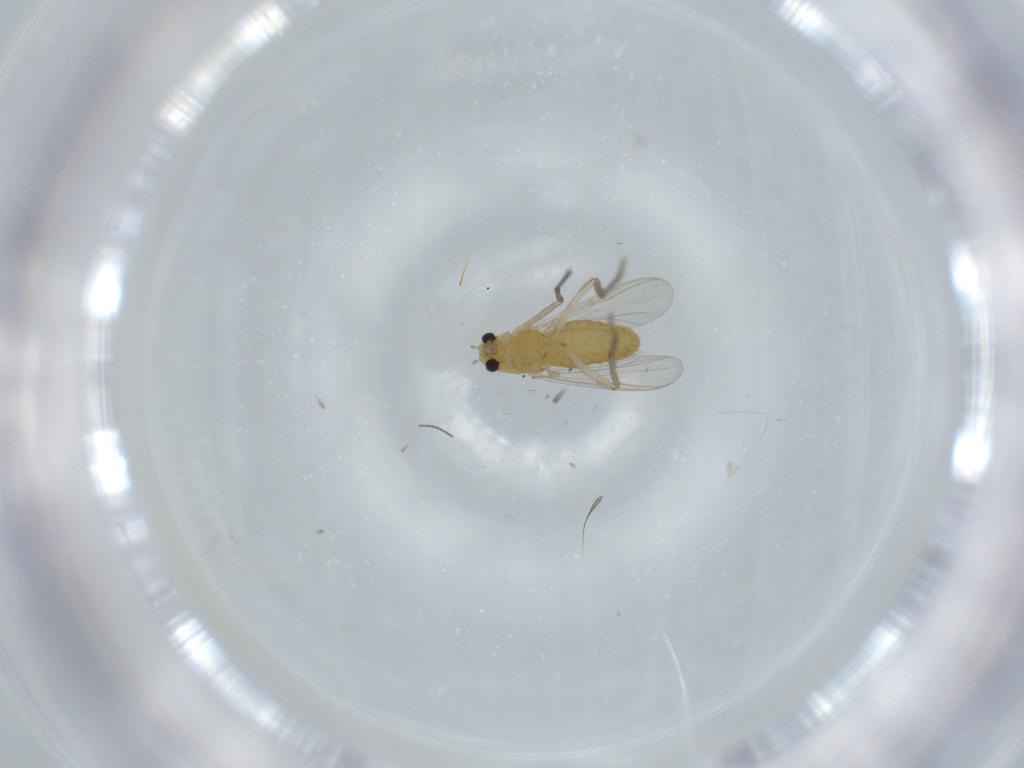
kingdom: Animalia
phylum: Arthropoda
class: Insecta
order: Diptera
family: Chironomidae
